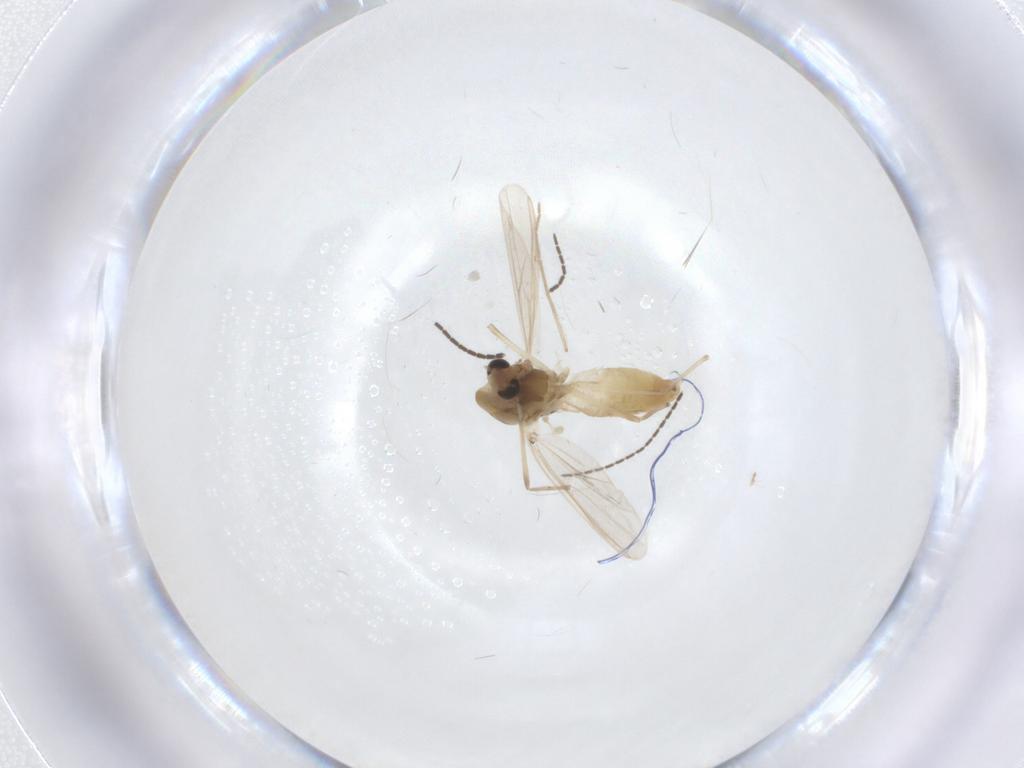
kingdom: Animalia
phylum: Arthropoda
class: Insecta
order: Diptera
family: Chironomidae
